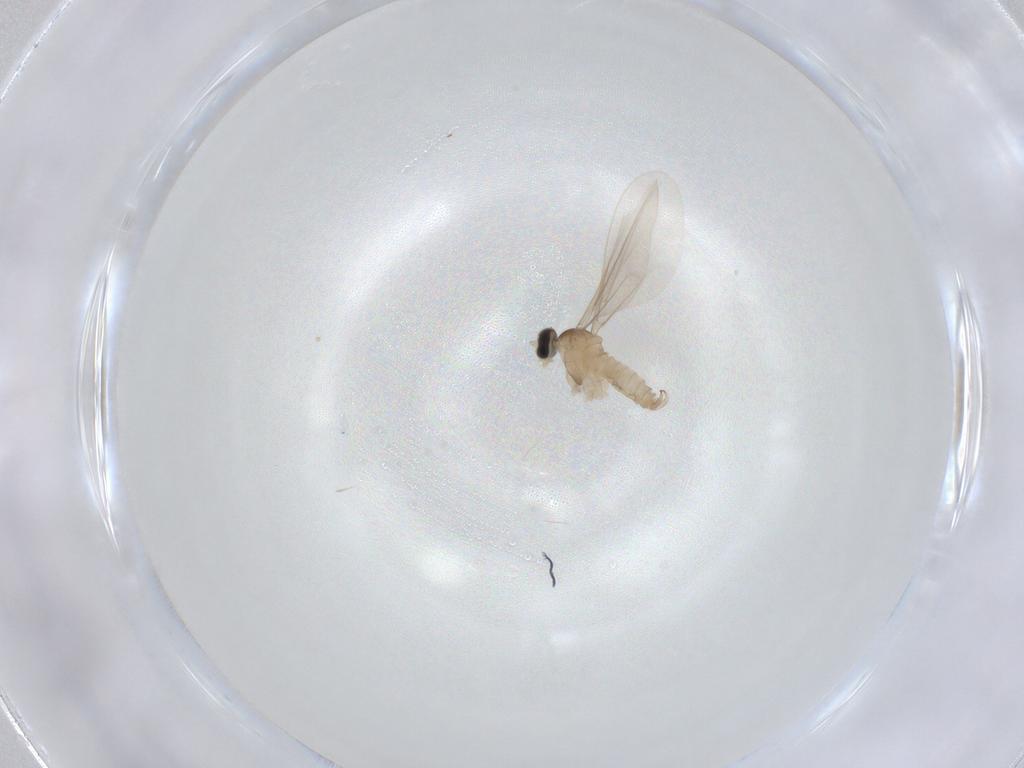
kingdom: Animalia
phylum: Arthropoda
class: Insecta
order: Diptera
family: Cecidomyiidae
